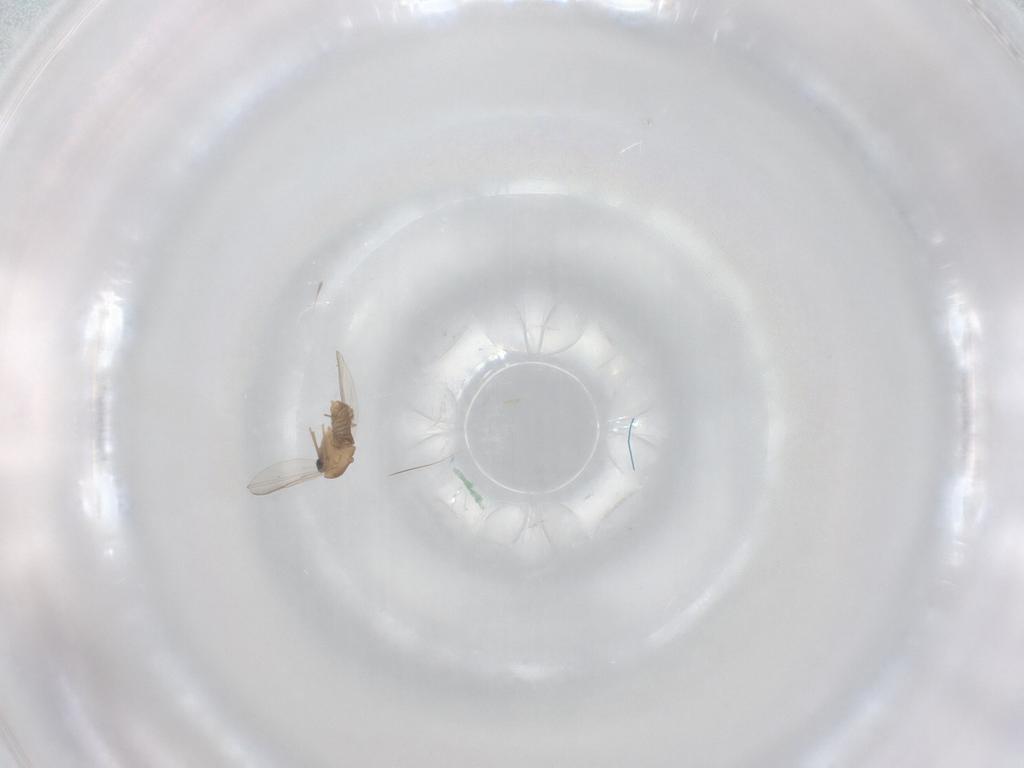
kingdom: Animalia
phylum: Arthropoda
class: Insecta
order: Diptera
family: Chironomidae
